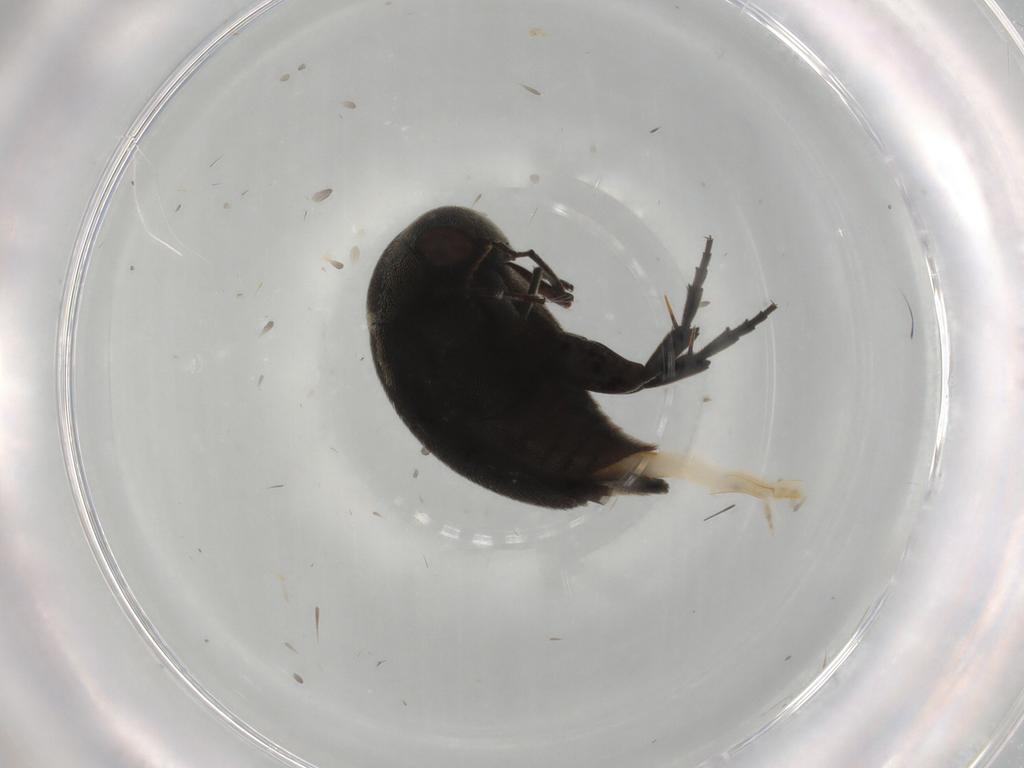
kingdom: Animalia
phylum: Arthropoda
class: Insecta
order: Coleoptera
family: Mordellidae
